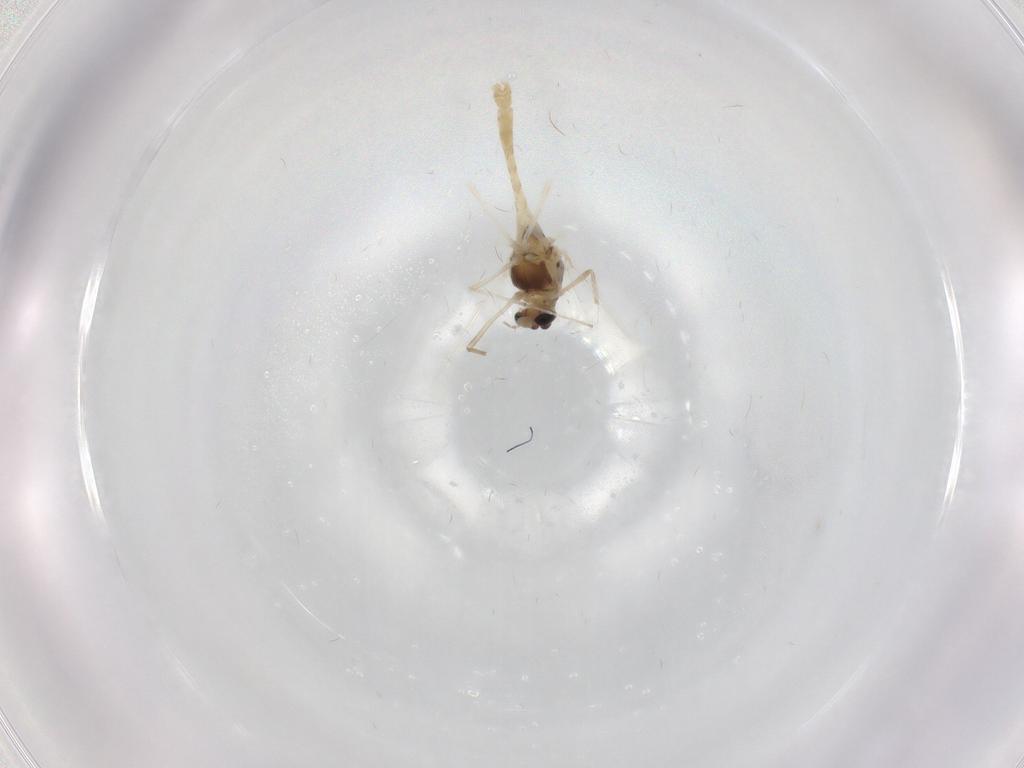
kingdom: Animalia
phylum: Arthropoda
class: Insecta
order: Diptera
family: Chironomidae
